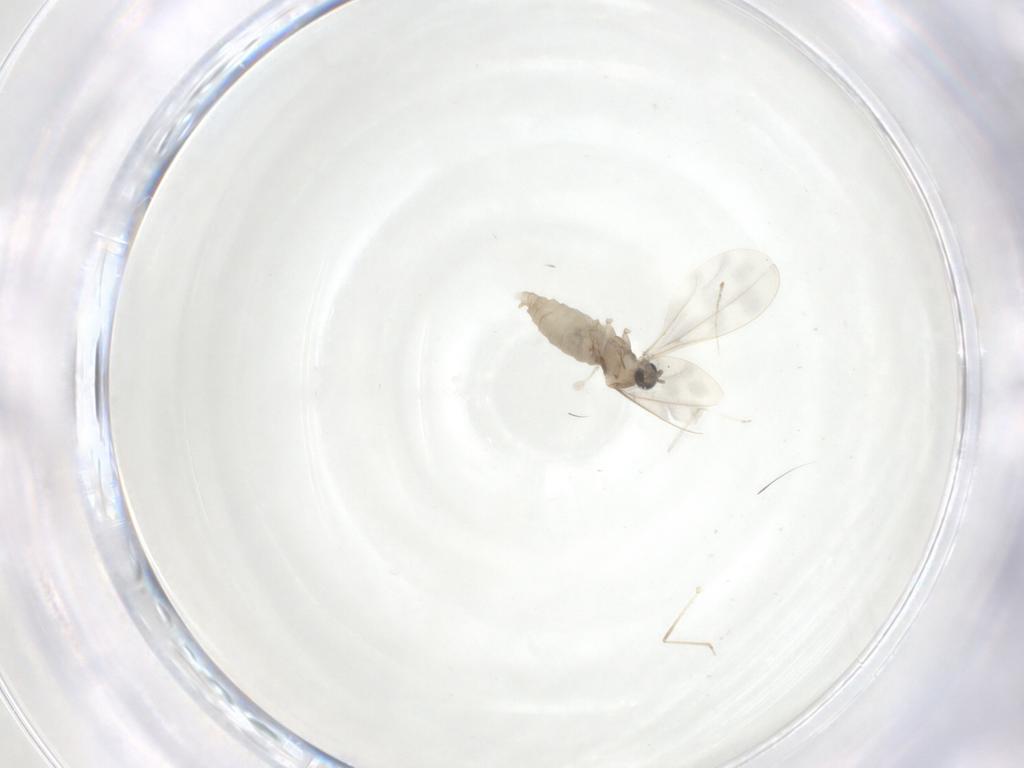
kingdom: Animalia
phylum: Arthropoda
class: Insecta
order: Diptera
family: Cecidomyiidae
